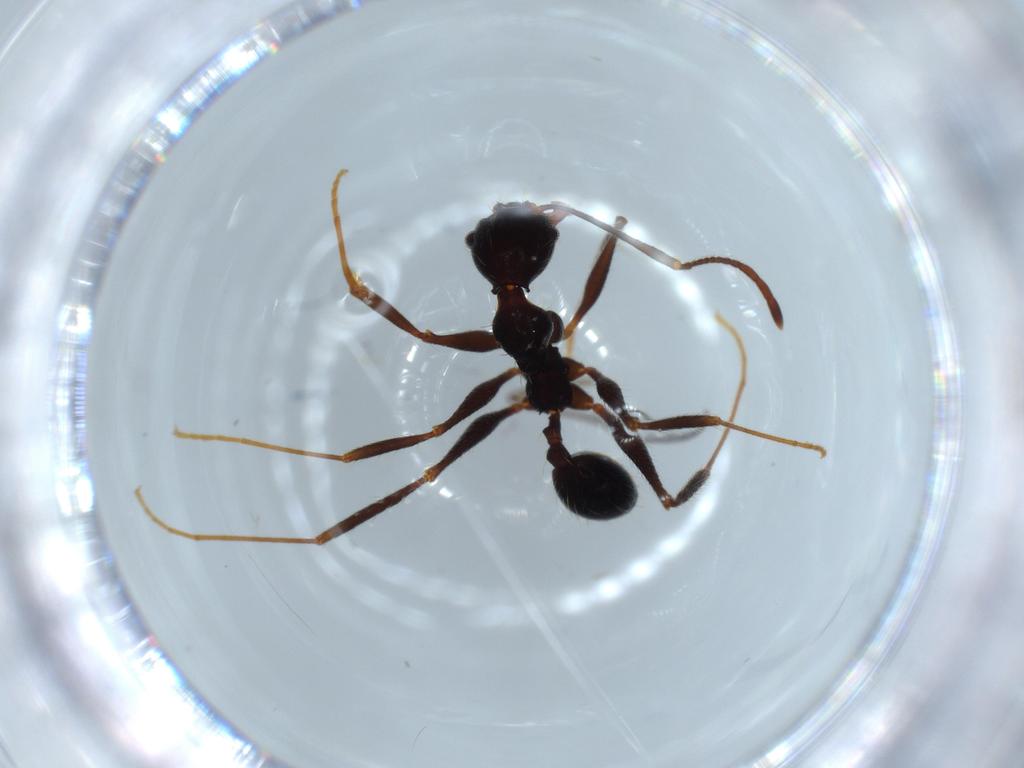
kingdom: Animalia
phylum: Arthropoda
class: Insecta
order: Hymenoptera
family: Formicidae
